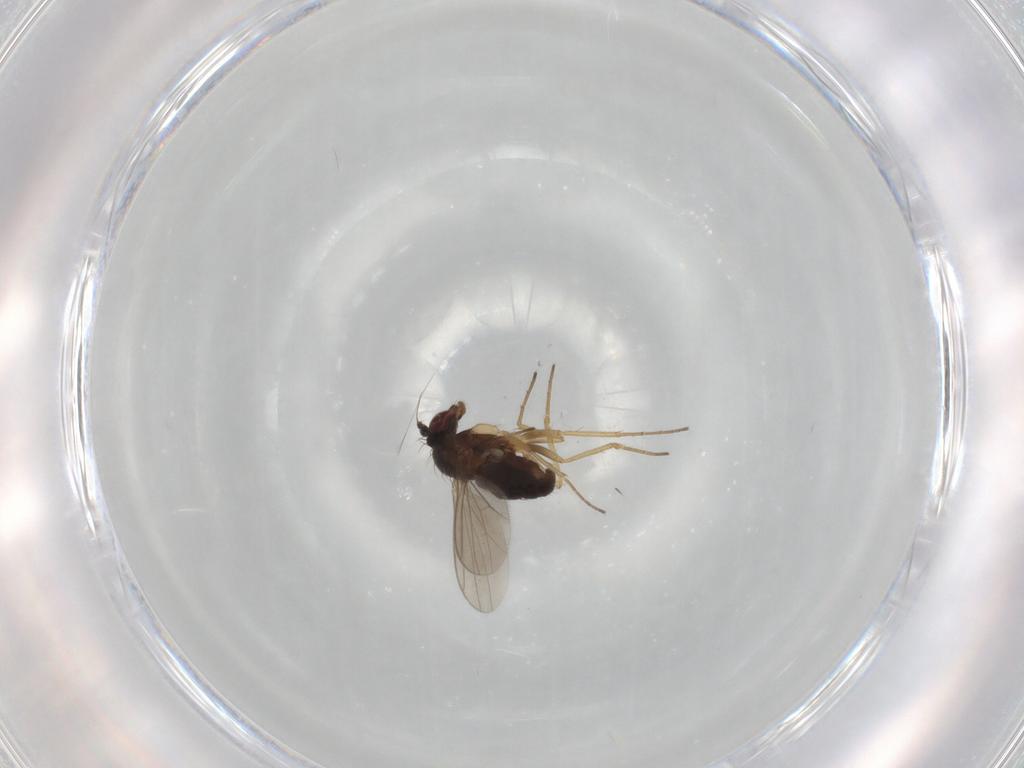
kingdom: Animalia
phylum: Arthropoda
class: Insecta
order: Diptera
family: Dolichopodidae
